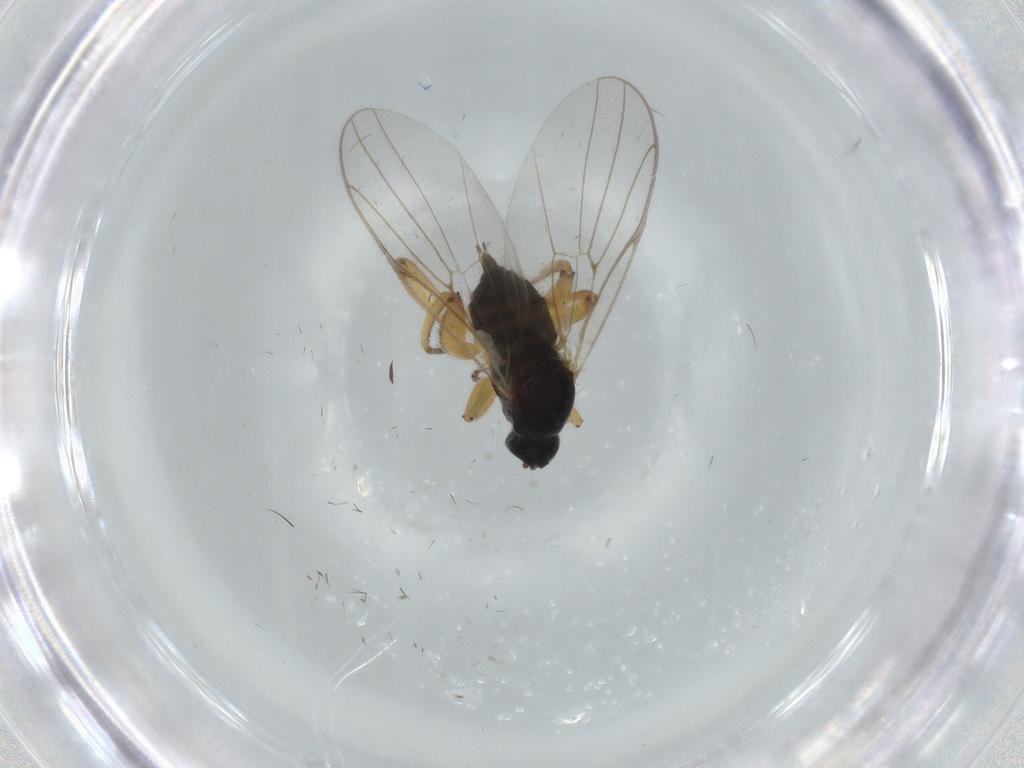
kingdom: Animalia
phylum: Arthropoda
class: Insecta
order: Diptera
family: Hybotidae
